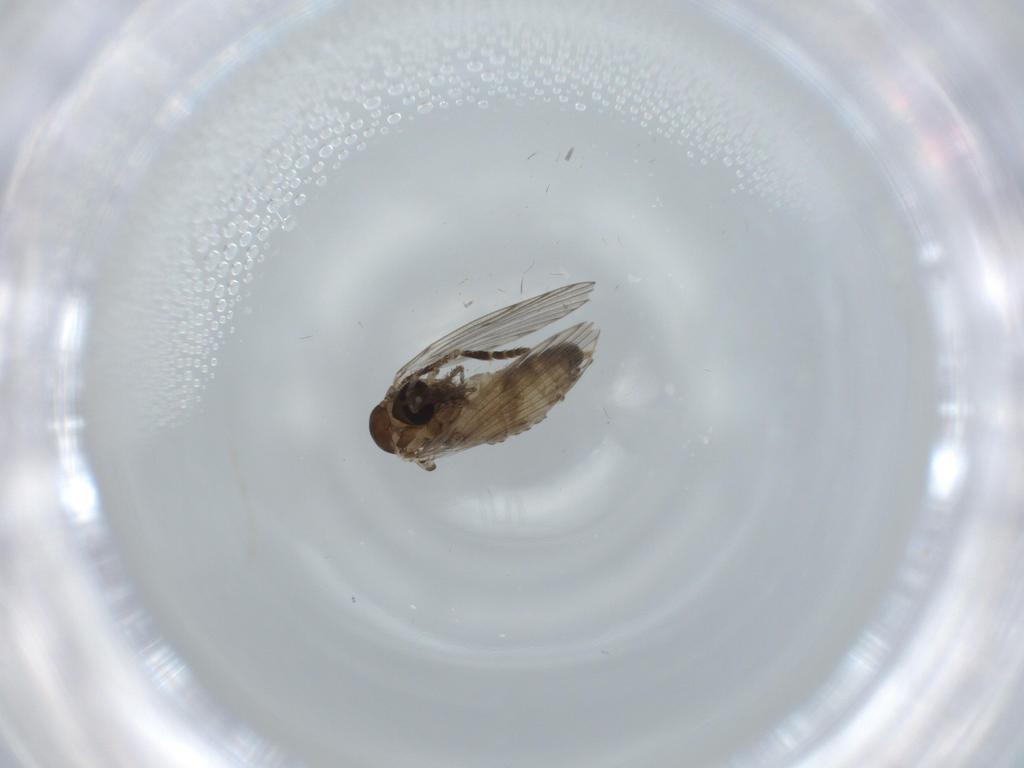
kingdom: Animalia
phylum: Arthropoda
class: Insecta
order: Diptera
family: Psychodidae
